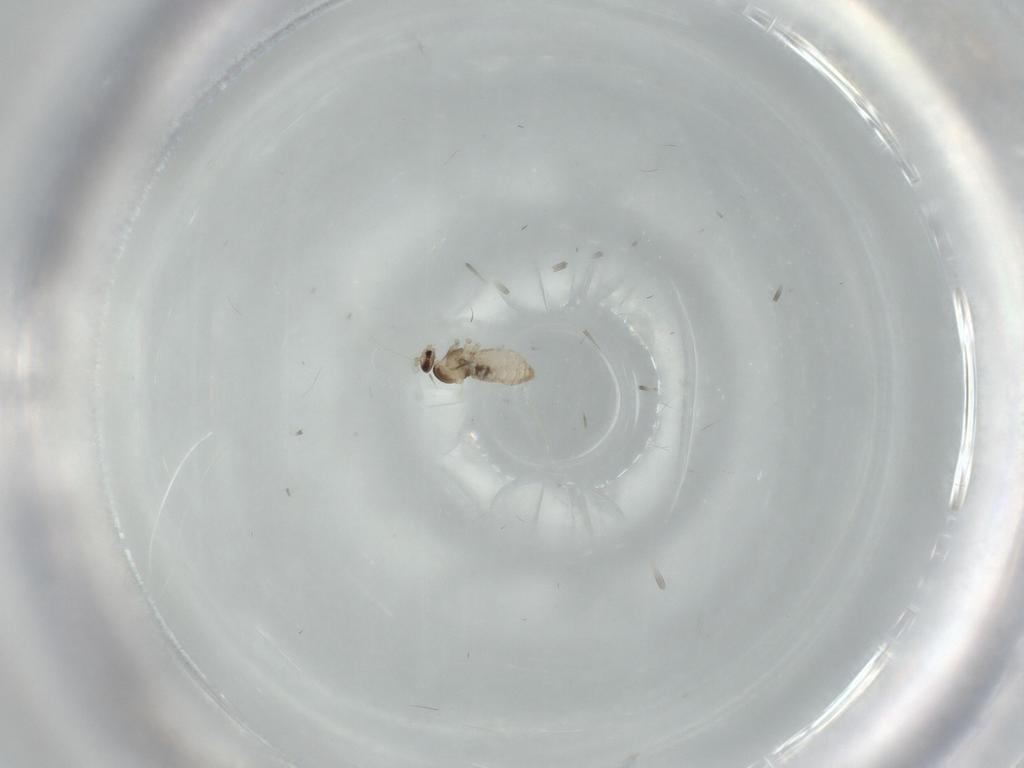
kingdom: Animalia
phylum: Arthropoda
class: Insecta
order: Diptera
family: Cecidomyiidae
